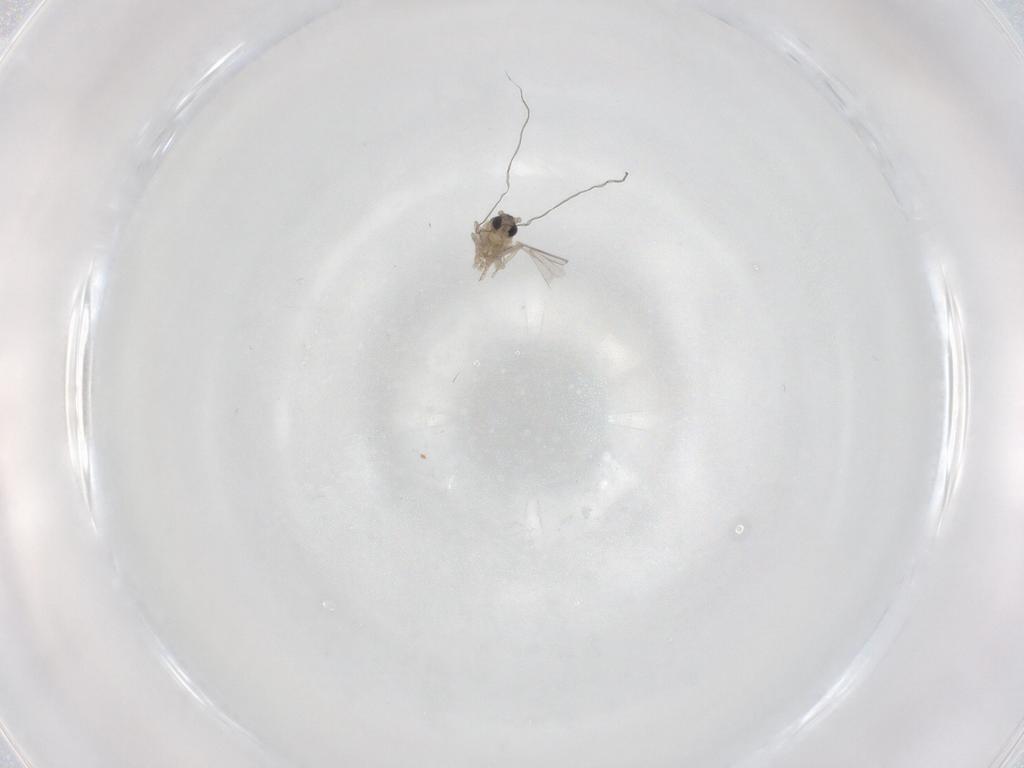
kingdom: Animalia
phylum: Arthropoda
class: Insecta
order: Diptera
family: Cecidomyiidae
